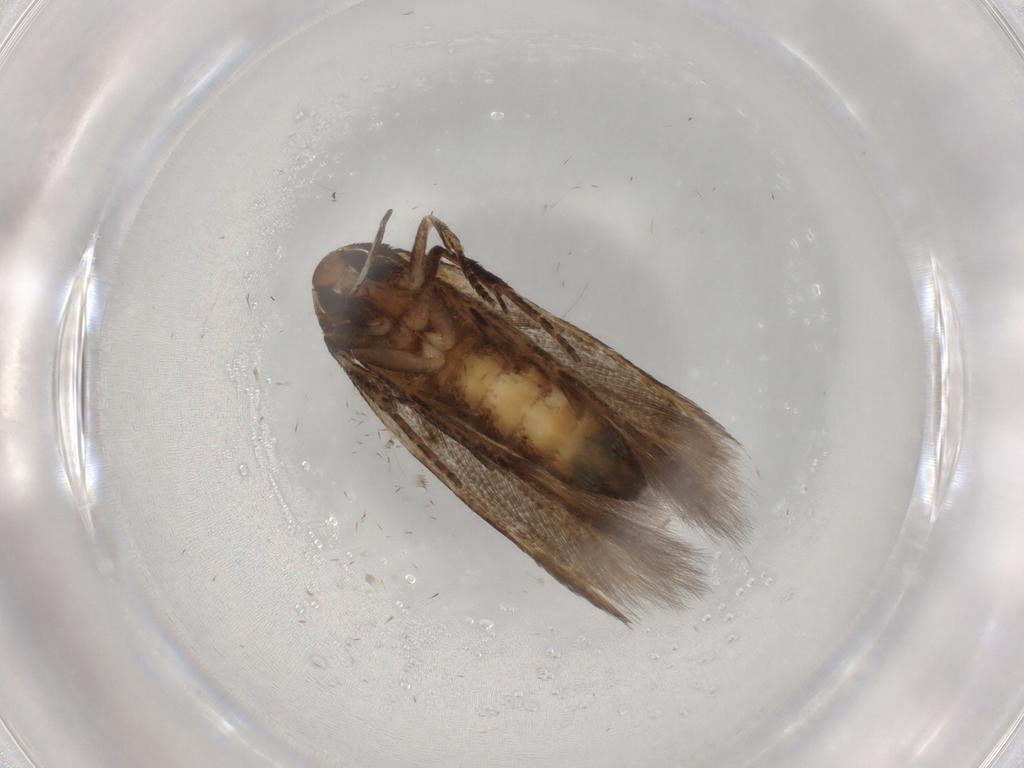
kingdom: Animalia
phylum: Arthropoda
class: Insecta
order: Lepidoptera
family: Cosmopterigidae
